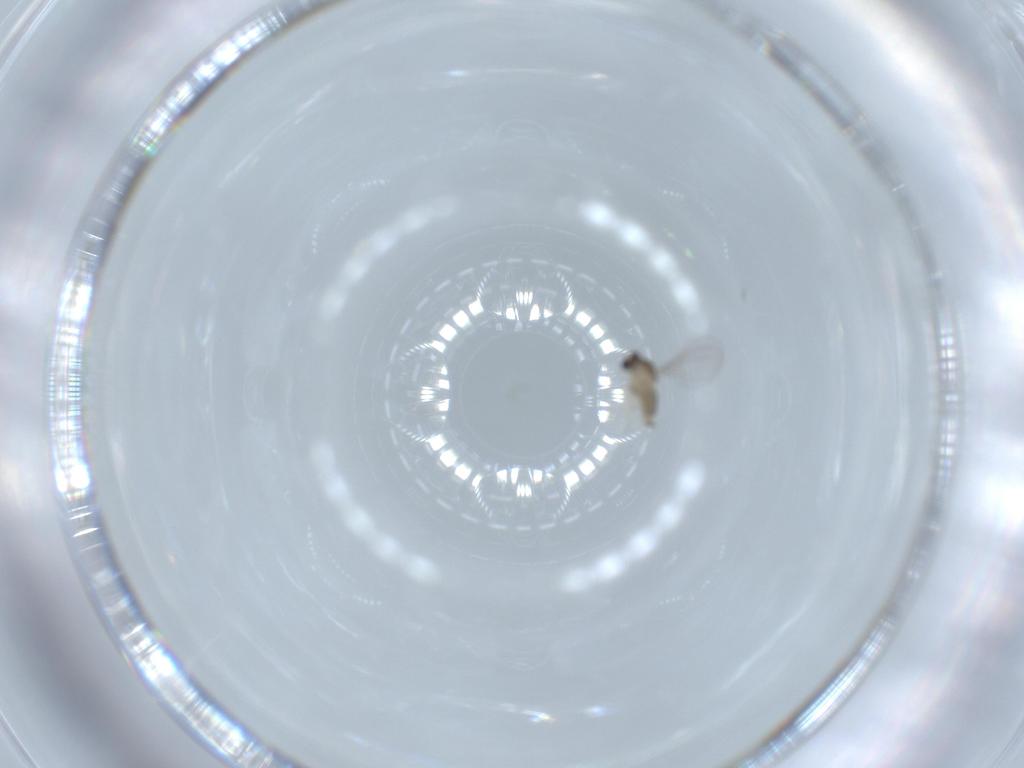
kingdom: Animalia
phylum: Arthropoda
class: Insecta
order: Diptera
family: Cecidomyiidae
